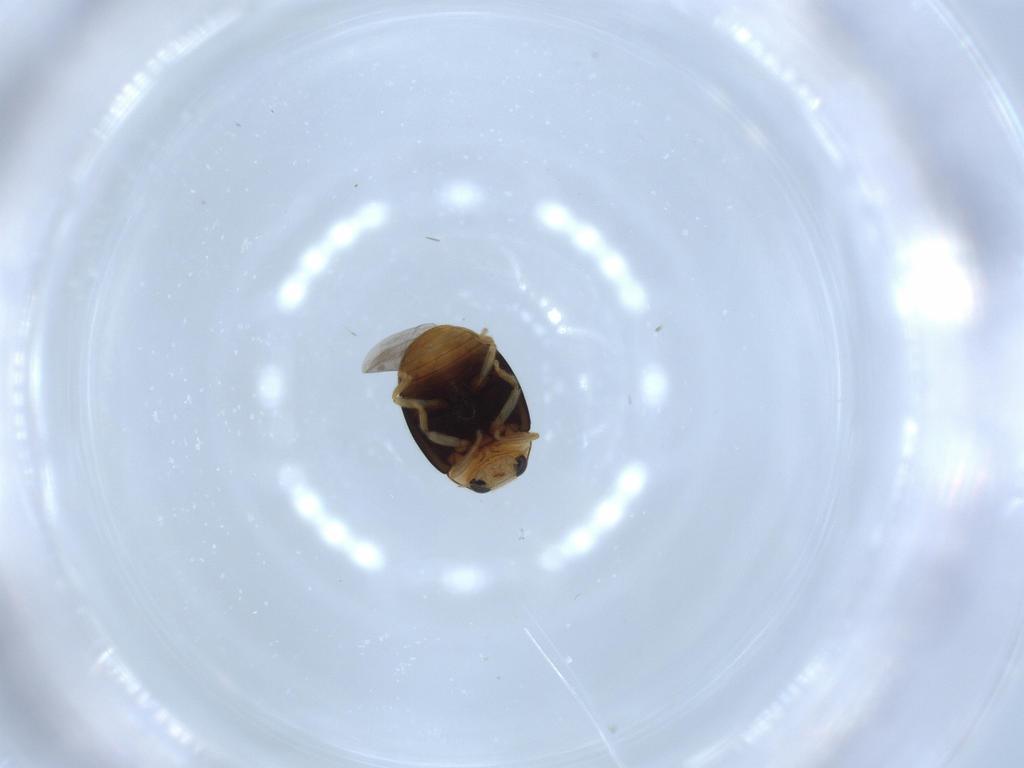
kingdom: Animalia
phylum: Arthropoda
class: Insecta
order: Coleoptera
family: Coccinellidae
